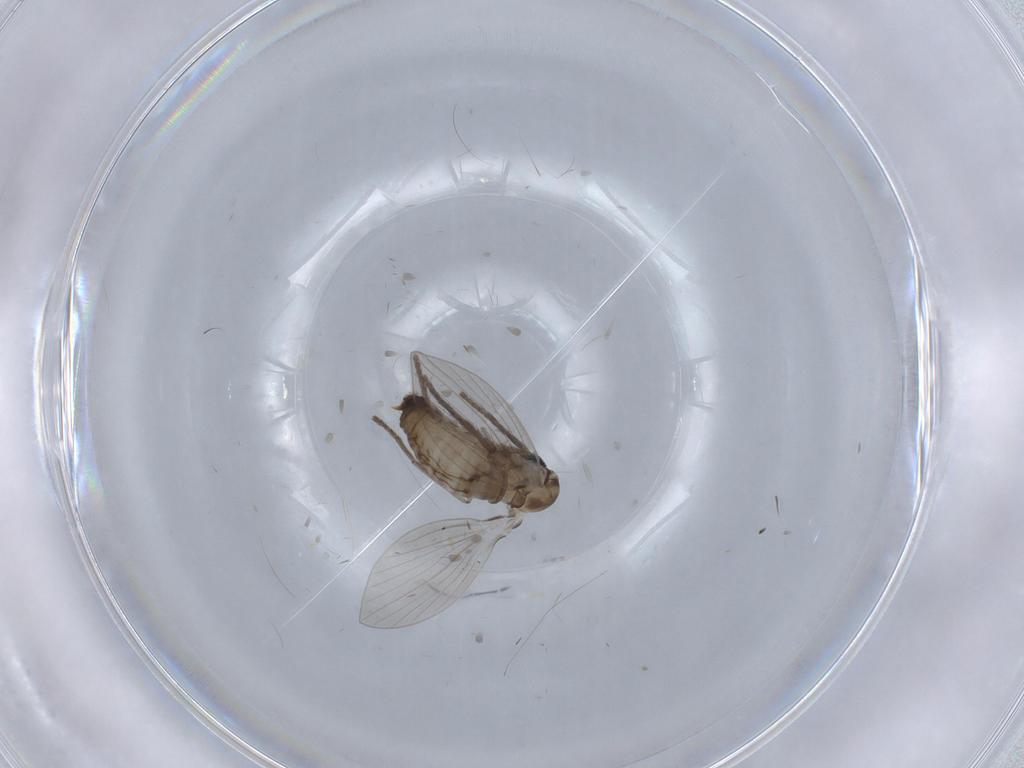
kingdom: Animalia
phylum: Arthropoda
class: Insecta
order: Diptera
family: Drosophilidae
